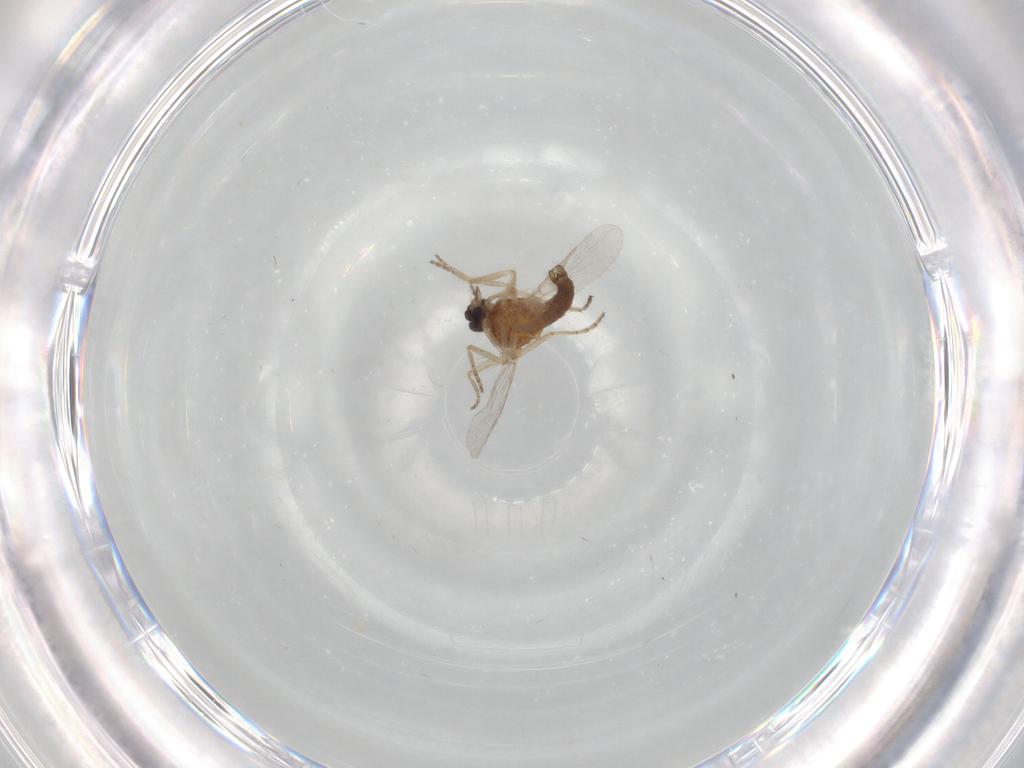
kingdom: Animalia
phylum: Arthropoda
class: Insecta
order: Diptera
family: Ceratopogonidae
